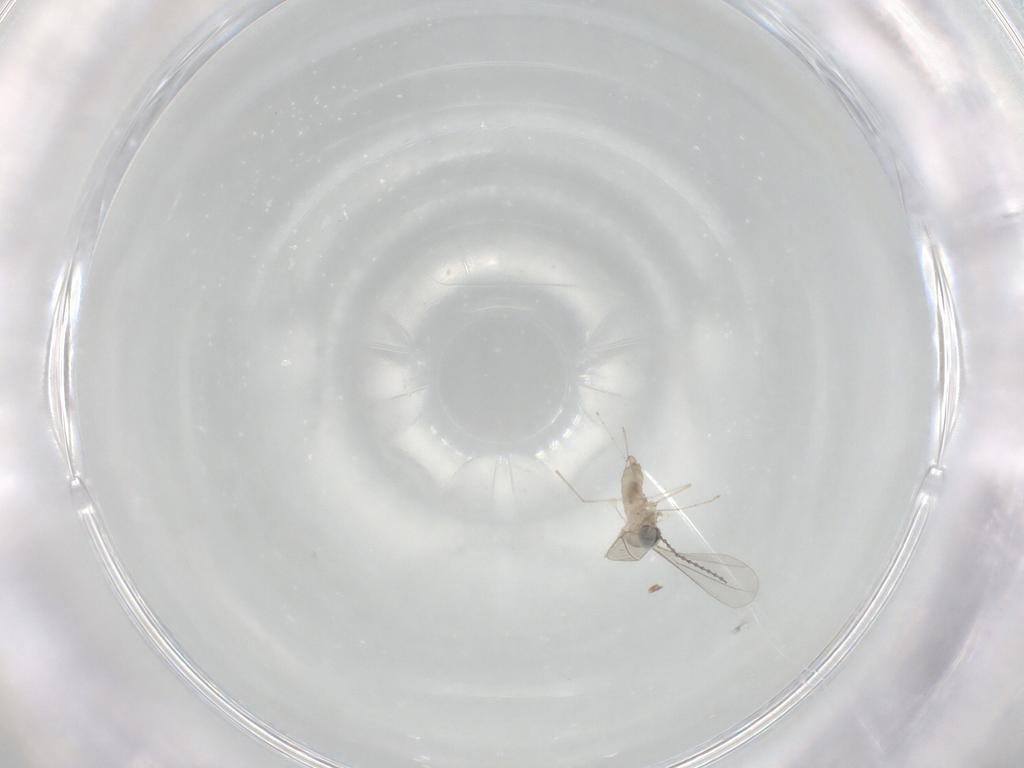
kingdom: Animalia
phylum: Arthropoda
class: Insecta
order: Diptera
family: Cecidomyiidae
